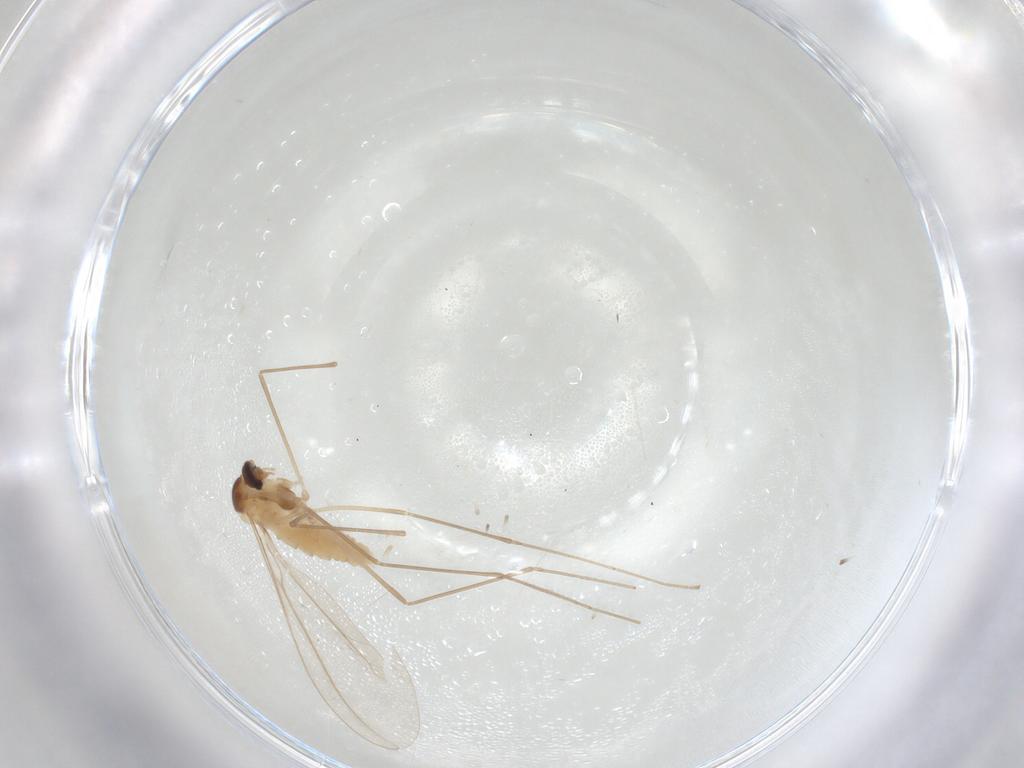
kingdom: Animalia
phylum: Arthropoda
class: Insecta
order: Diptera
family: Cecidomyiidae
